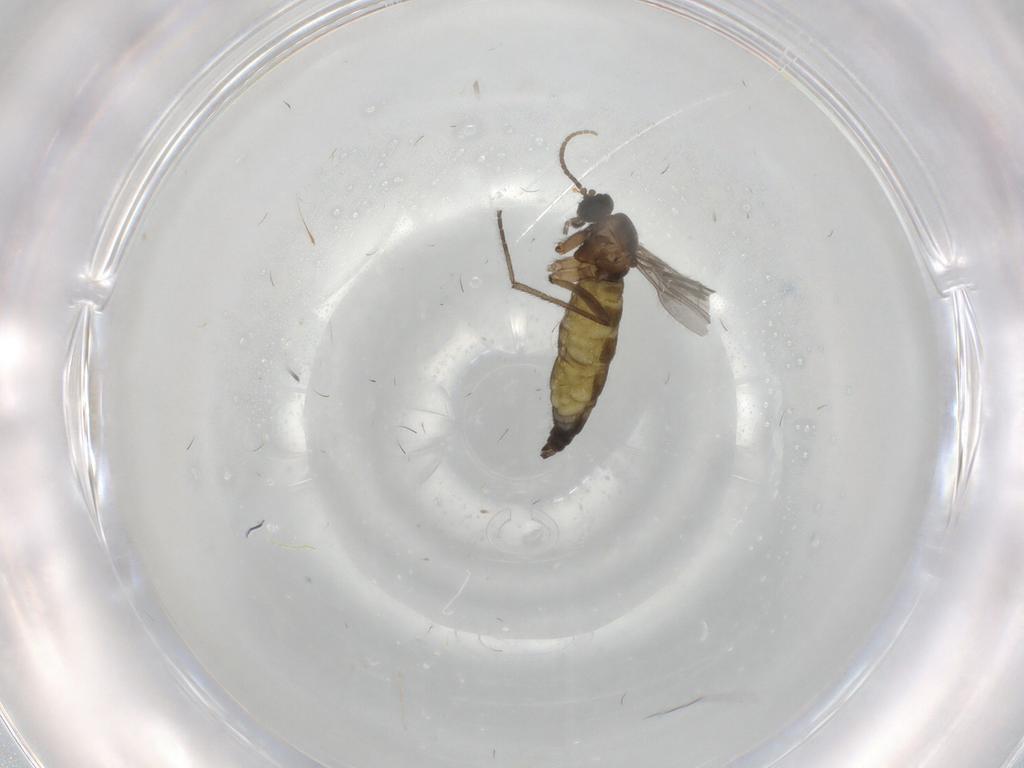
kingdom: Animalia
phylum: Arthropoda
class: Insecta
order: Diptera
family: Sciaridae
